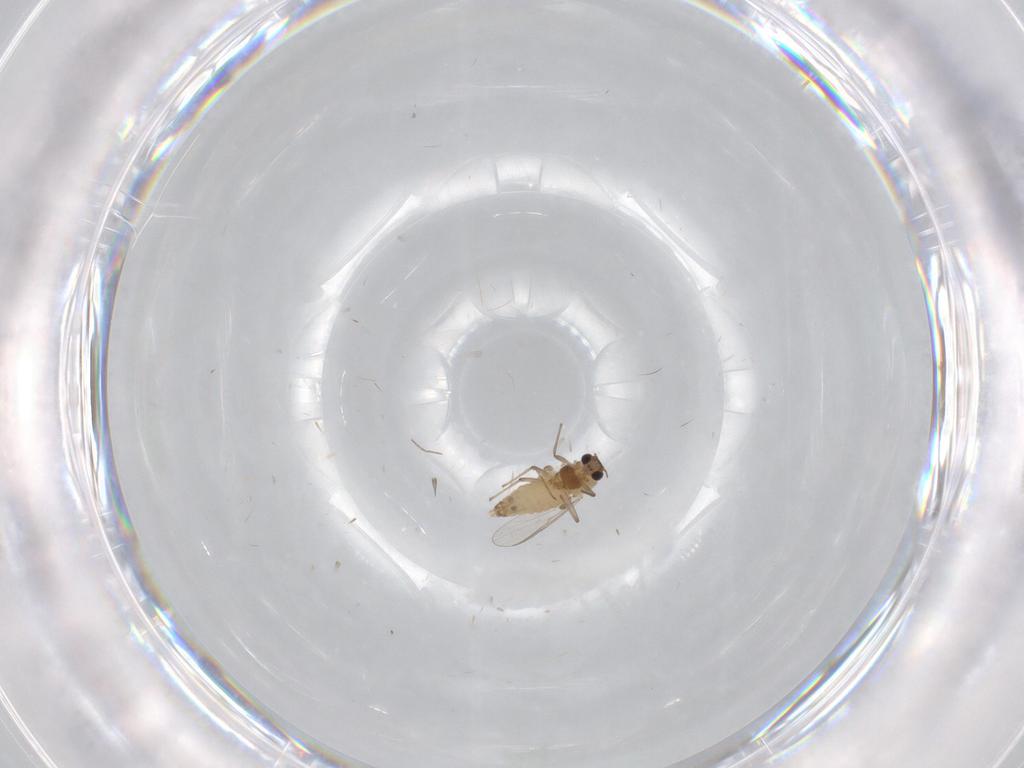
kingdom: Animalia
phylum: Arthropoda
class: Insecta
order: Diptera
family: Chironomidae
